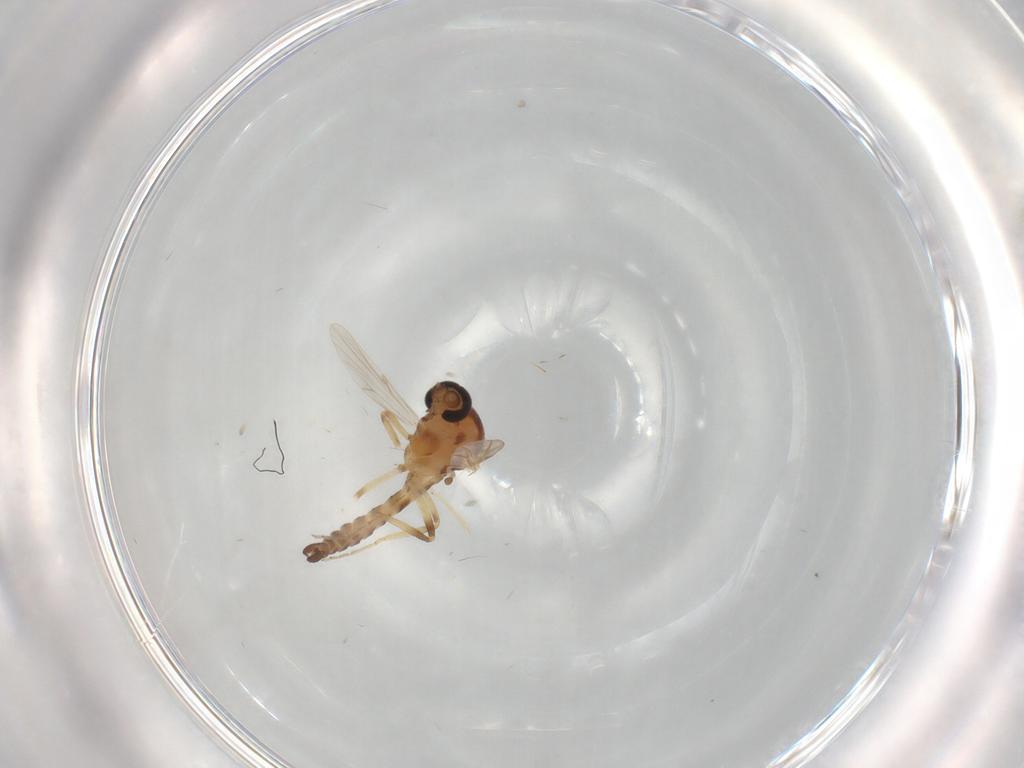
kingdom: Animalia
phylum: Arthropoda
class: Insecta
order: Diptera
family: Ceratopogonidae
